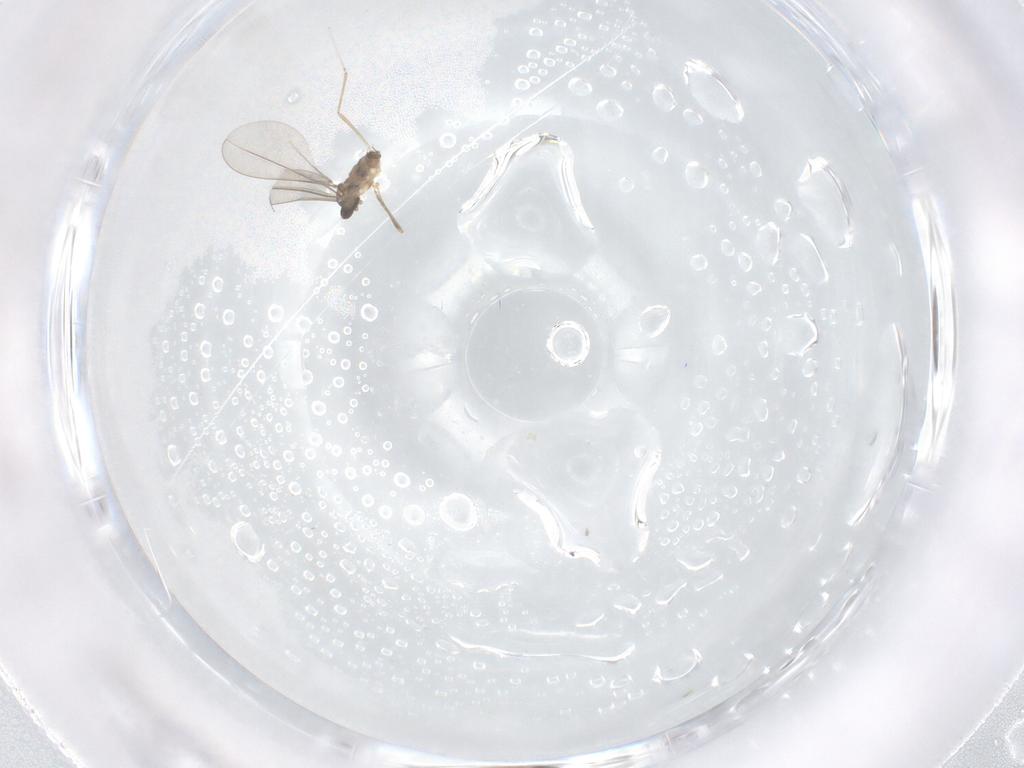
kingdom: Animalia
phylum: Arthropoda
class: Insecta
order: Diptera
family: Cecidomyiidae
